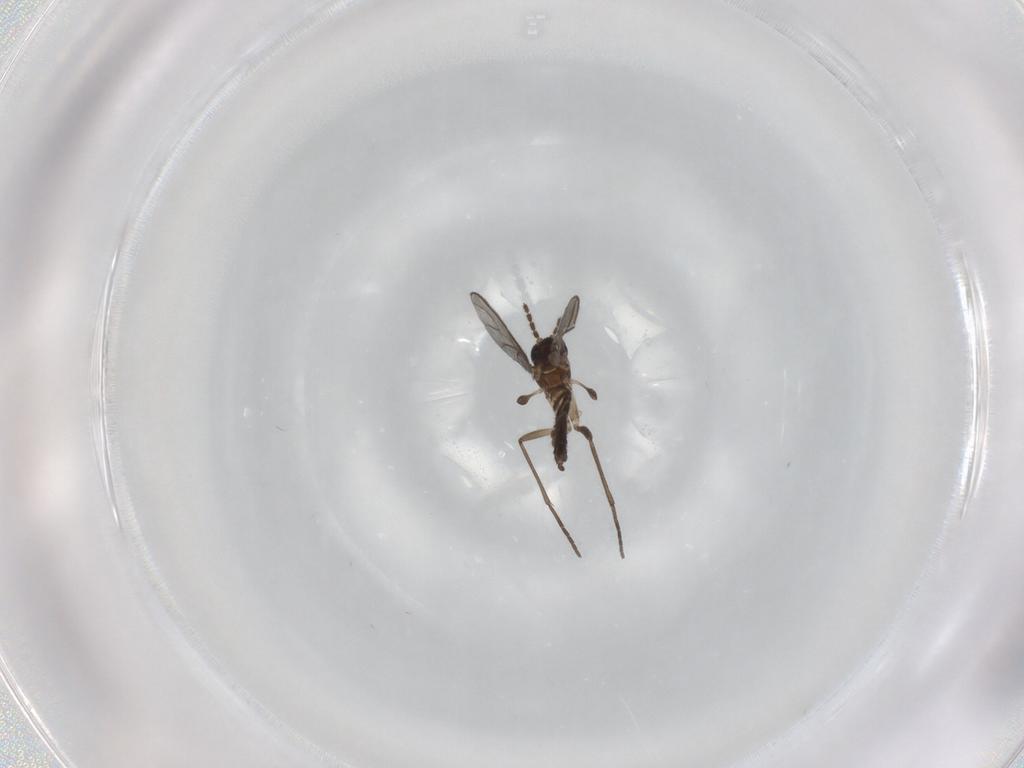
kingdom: Animalia
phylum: Arthropoda
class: Insecta
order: Diptera
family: Sciaridae
